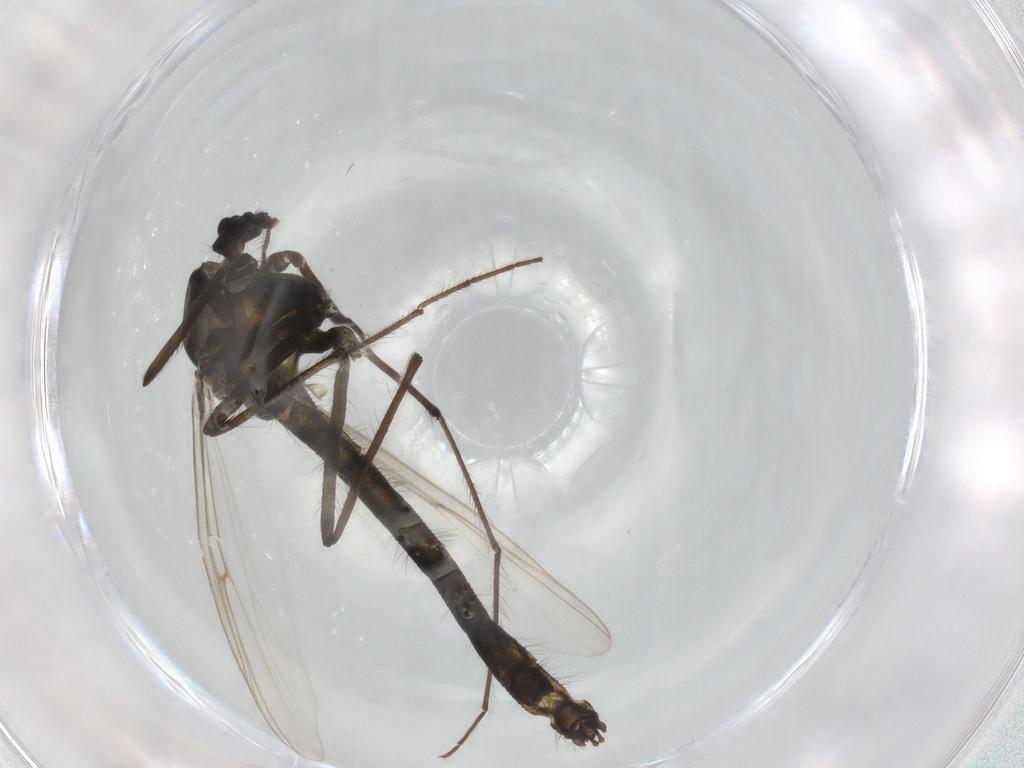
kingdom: Animalia
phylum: Arthropoda
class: Insecta
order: Diptera
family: Chironomidae
